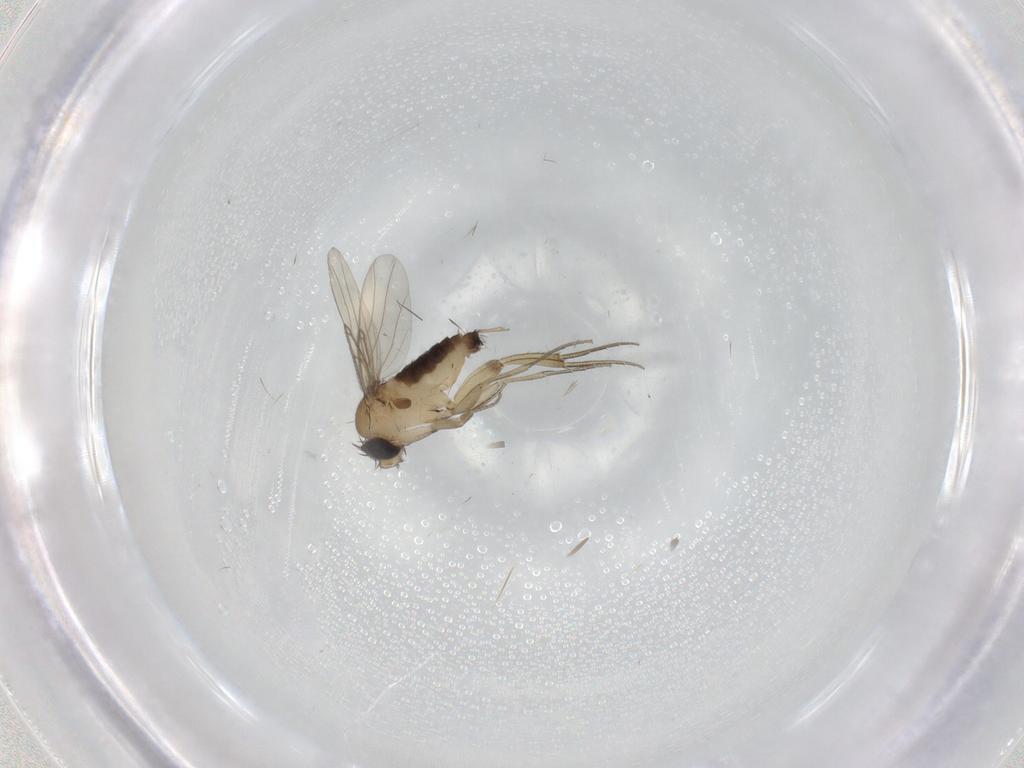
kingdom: Animalia
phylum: Arthropoda
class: Insecta
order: Diptera
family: Phoridae
